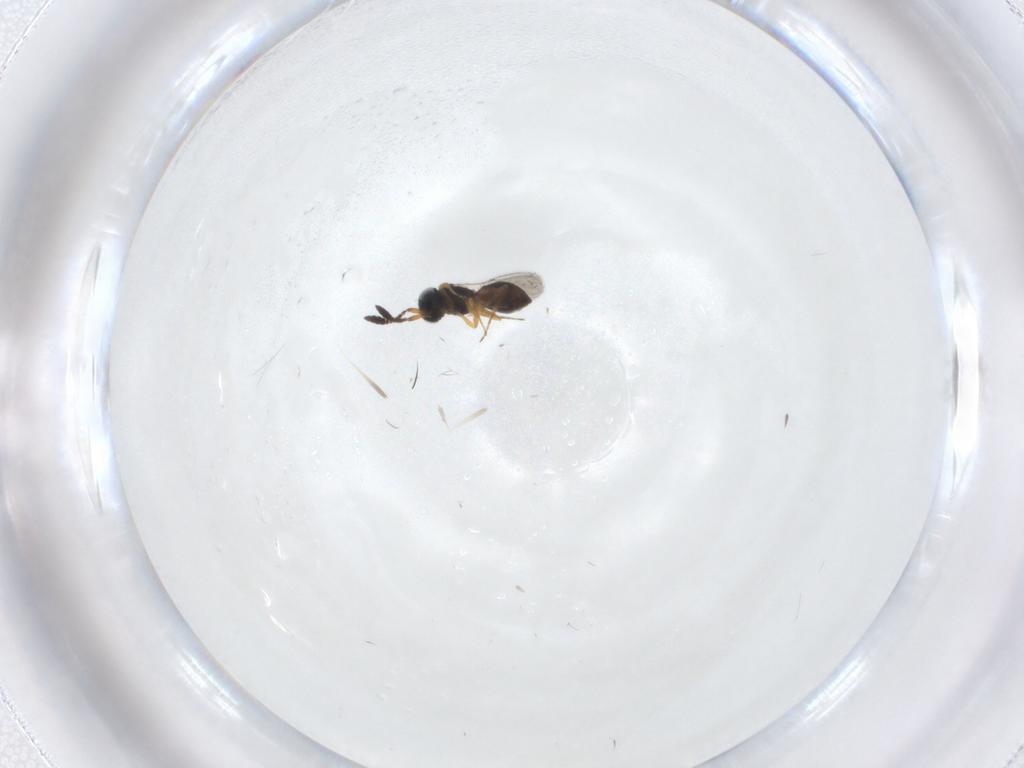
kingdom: Animalia
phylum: Arthropoda
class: Insecta
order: Hymenoptera
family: Scelionidae
